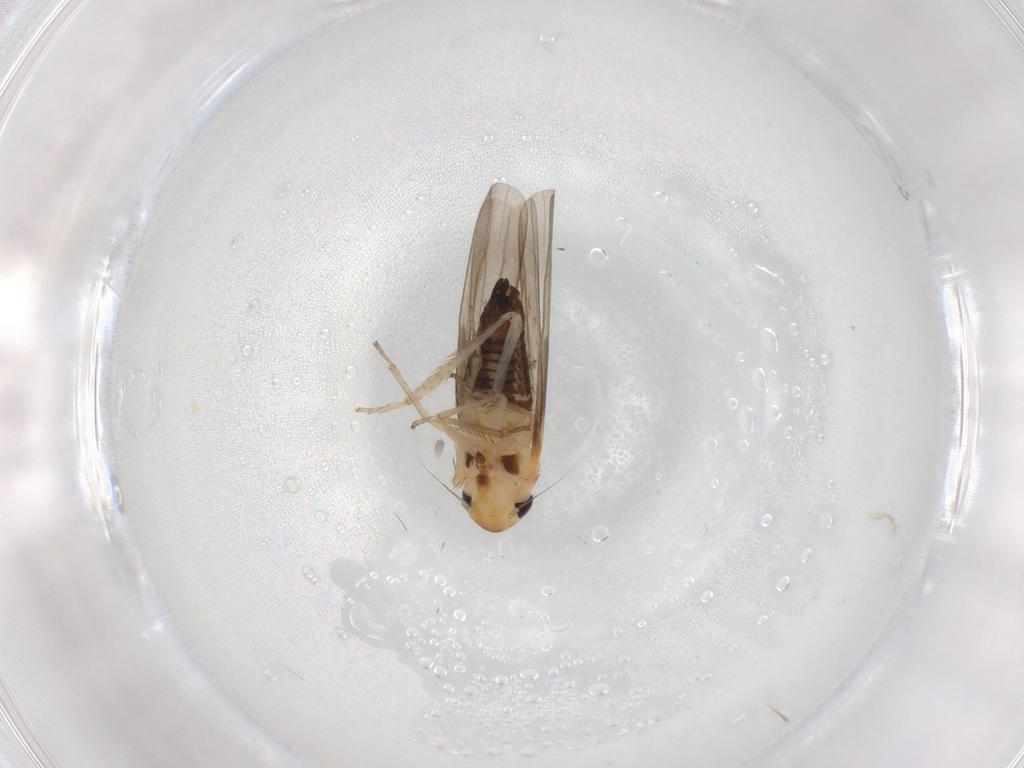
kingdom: Animalia
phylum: Arthropoda
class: Insecta
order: Hemiptera
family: Cicadellidae
